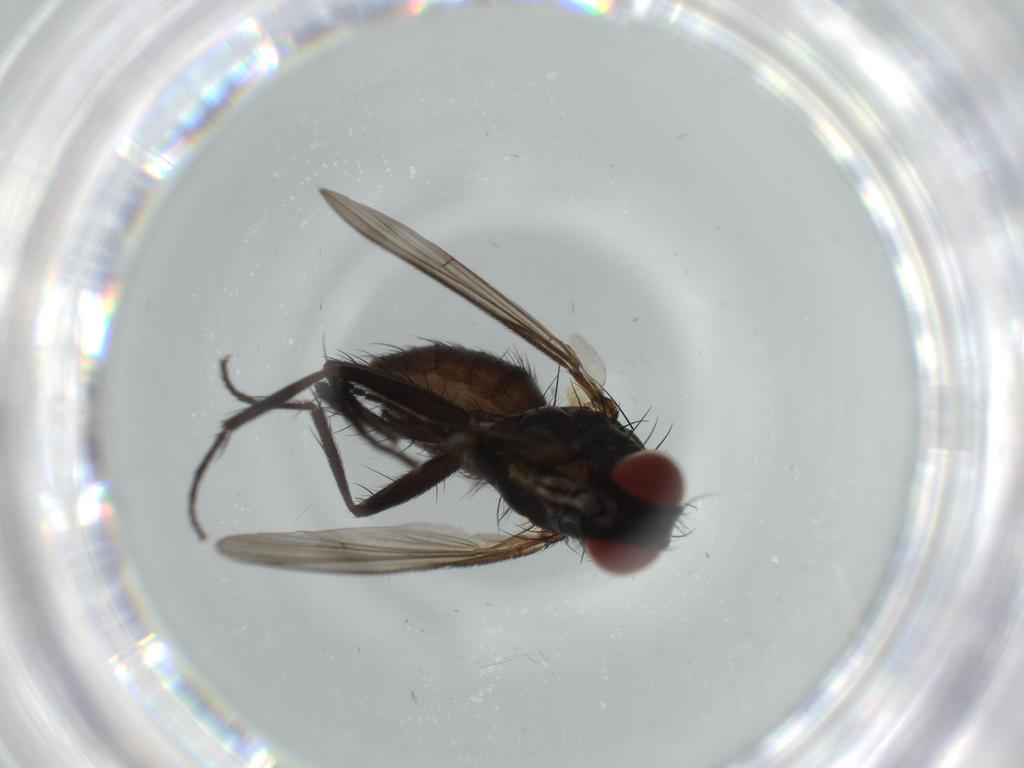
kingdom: Animalia
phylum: Arthropoda
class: Insecta
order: Diptera
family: Muscidae
